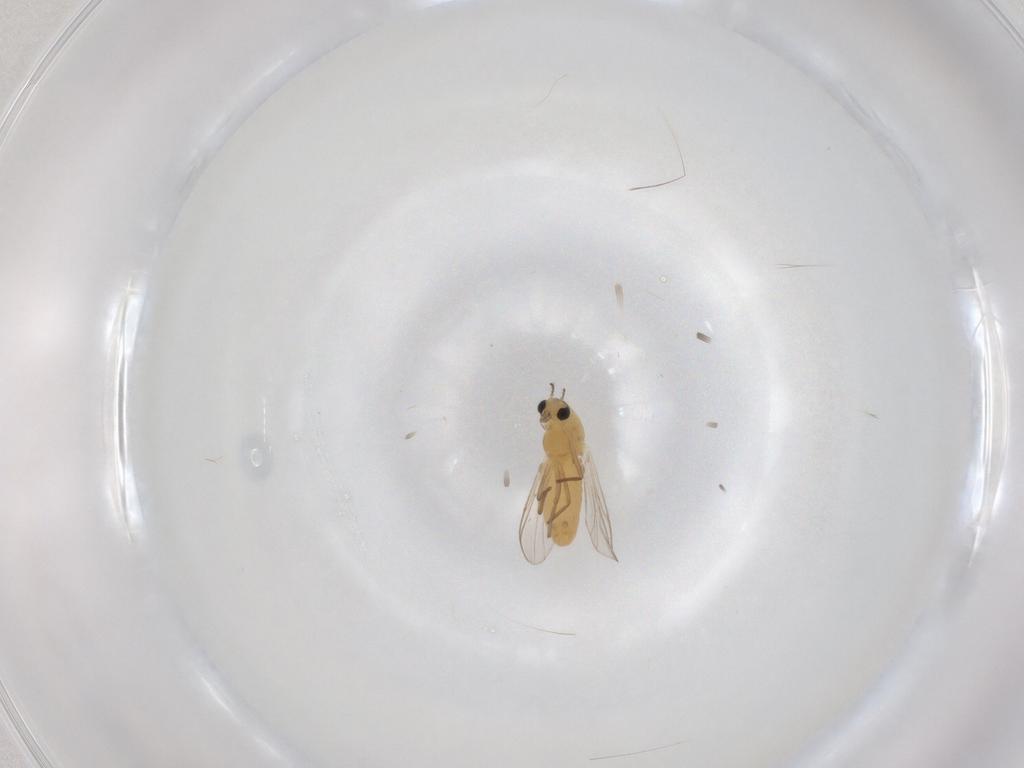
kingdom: Animalia
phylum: Arthropoda
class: Insecta
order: Diptera
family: Chironomidae
